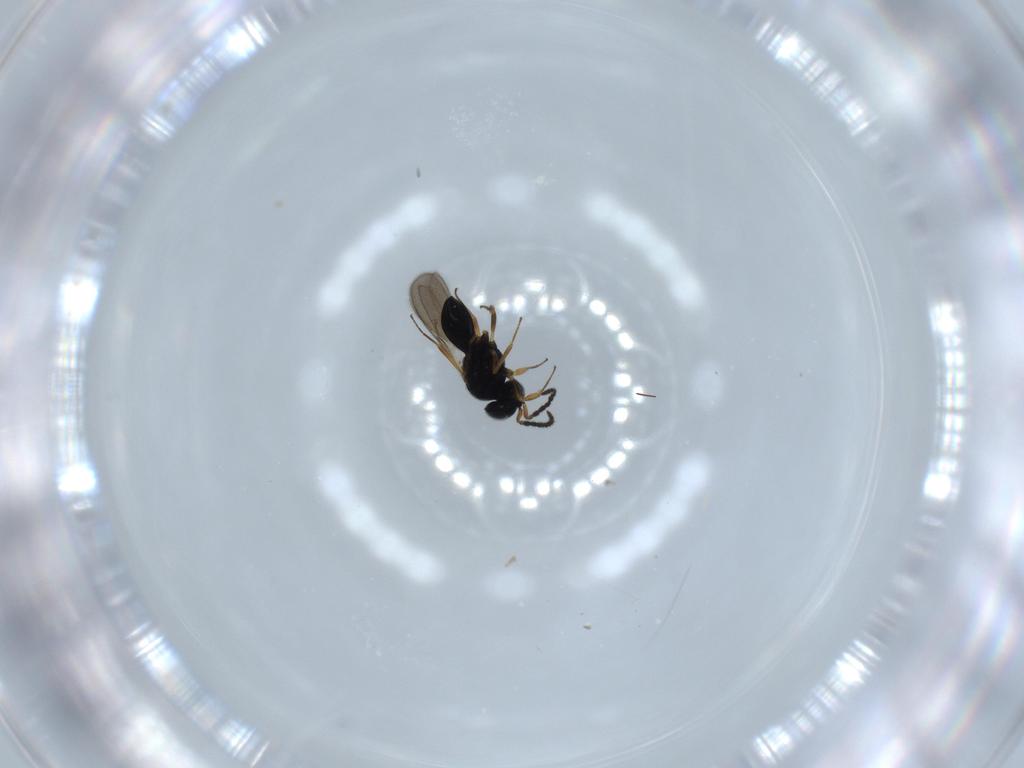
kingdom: Animalia
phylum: Arthropoda
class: Insecta
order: Hymenoptera
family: Scelionidae
